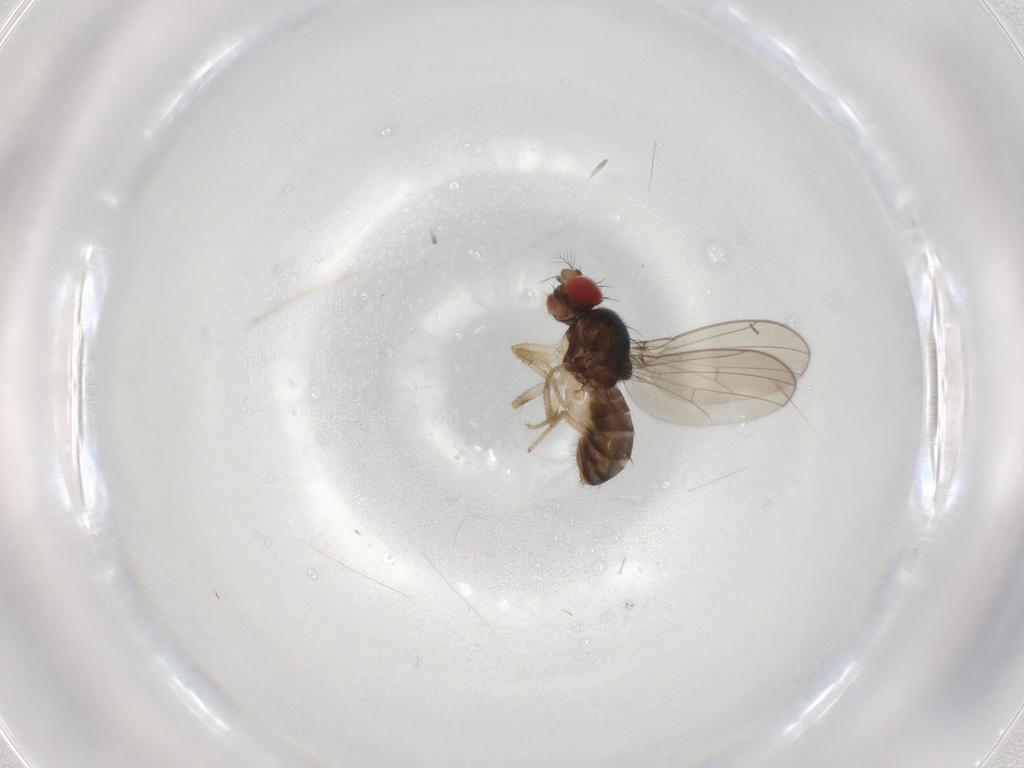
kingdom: Animalia
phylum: Arthropoda
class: Insecta
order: Diptera
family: Drosophilidae
